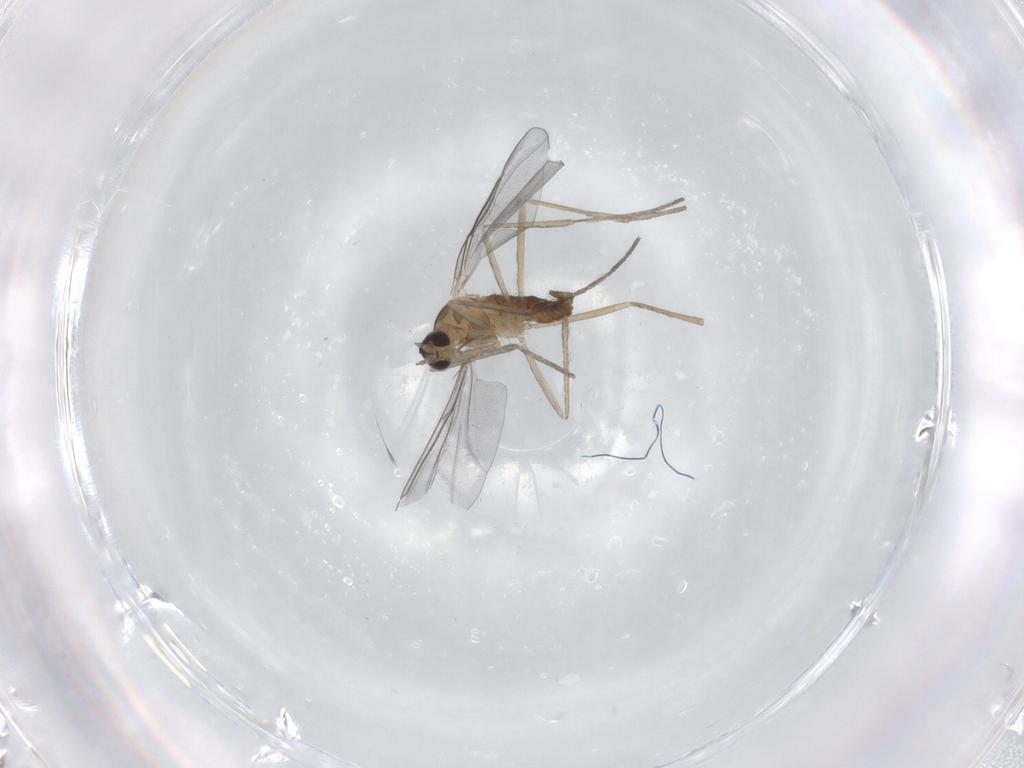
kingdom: Animalia
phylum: Arthropoda
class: Insecta
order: Diptera
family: Cecidomyiidae
